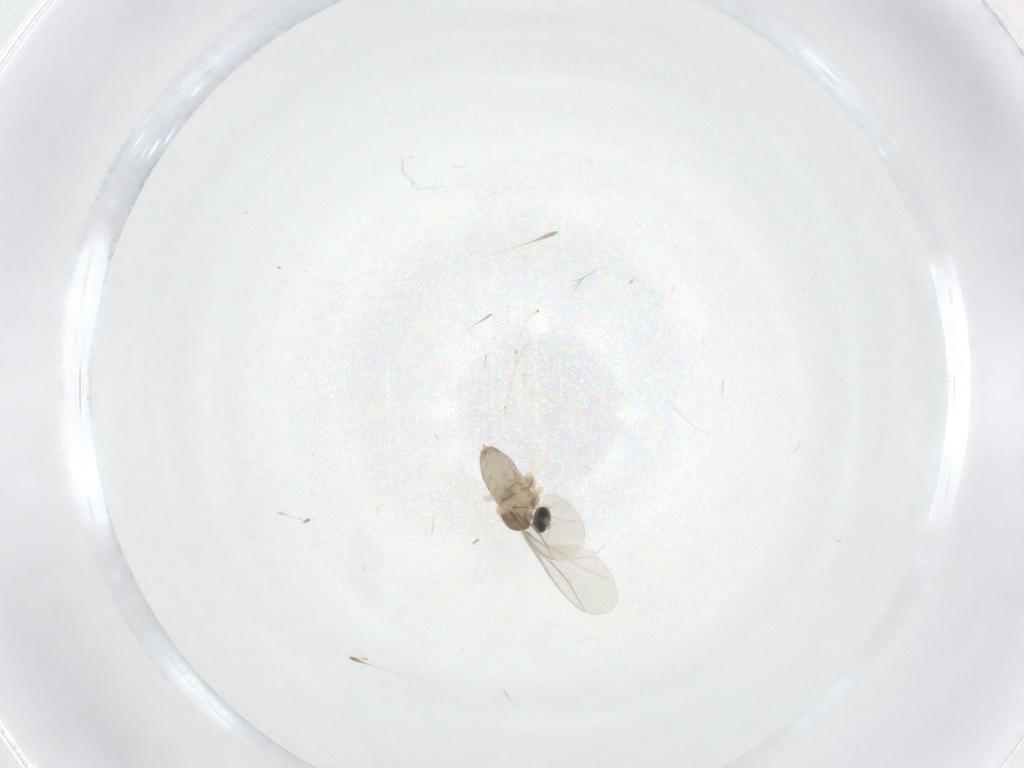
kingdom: Animalia
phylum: Arthropoda
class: Insecta
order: Diptera
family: Cecidomyiidae
